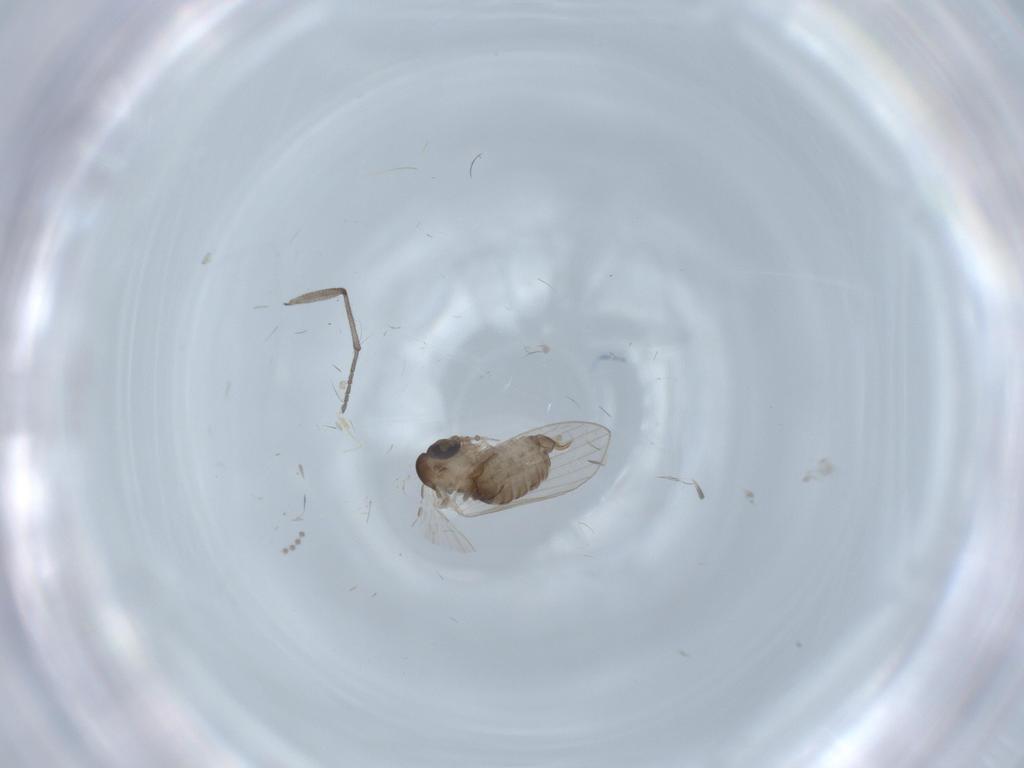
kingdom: Animalia
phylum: Arthropoda
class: Insecta
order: Diptera
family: Psychodidae
